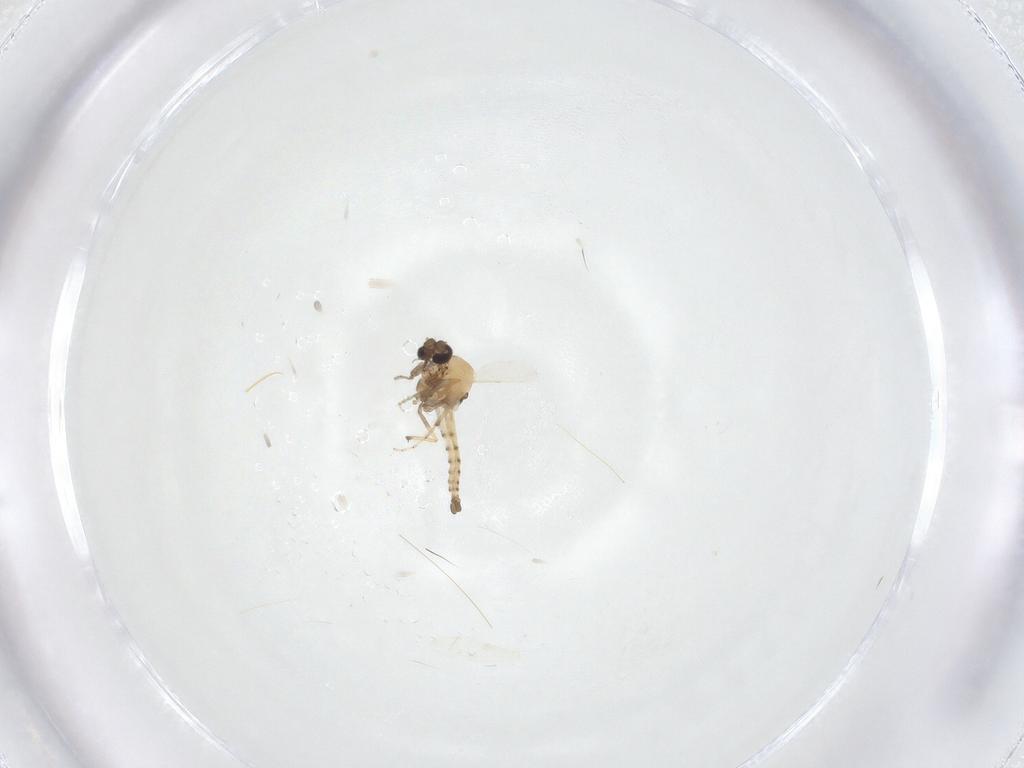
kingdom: Animalia
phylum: Arthropoda
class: Insecta
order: Diptera
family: Ceratopogonidae
